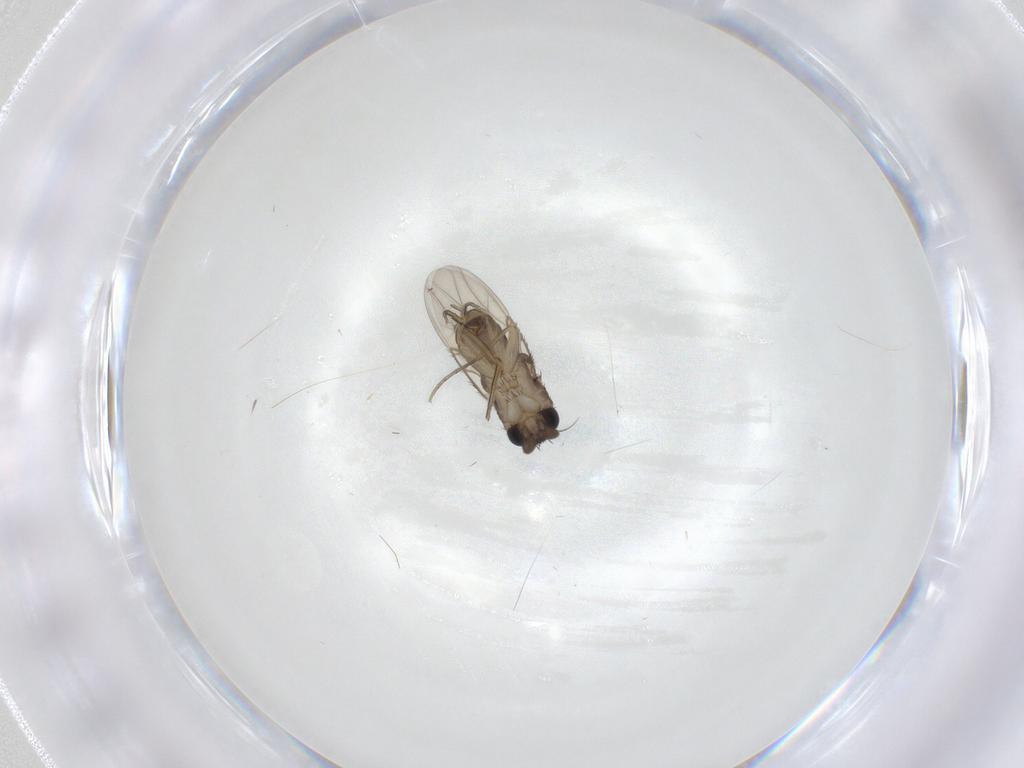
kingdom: Animalia
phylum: Arthropoda
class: Insecta
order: Diptera
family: Phoridae
